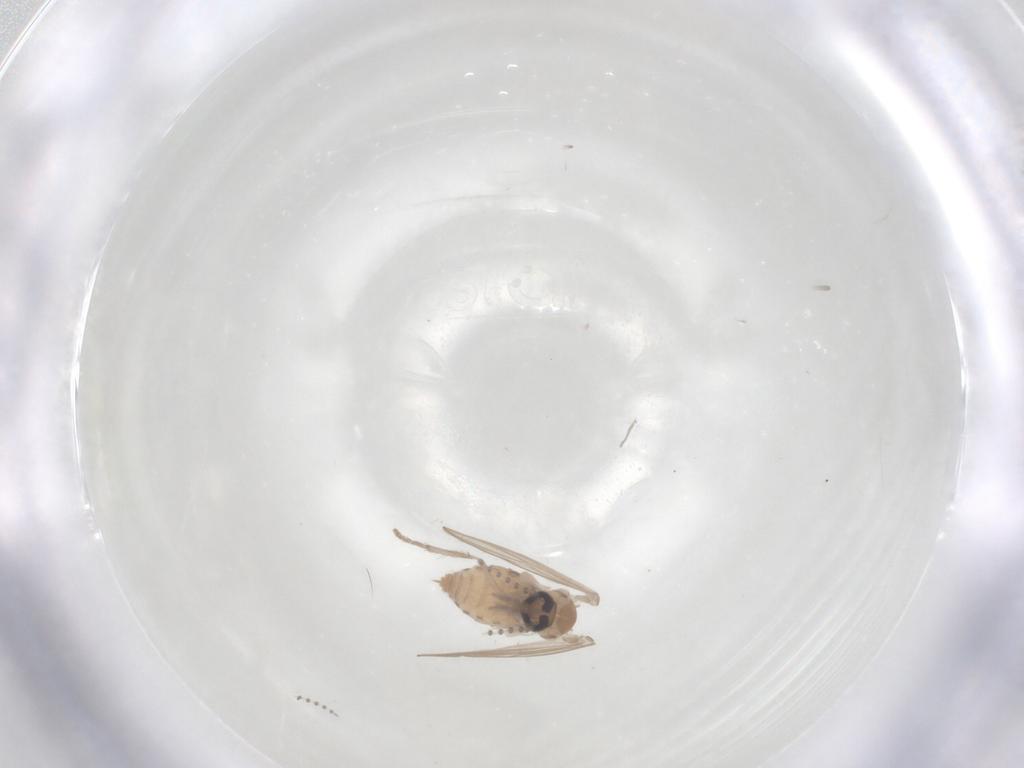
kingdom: Animalia
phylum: Arthropoda
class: Insecta
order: Diptera
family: Psychodidae
